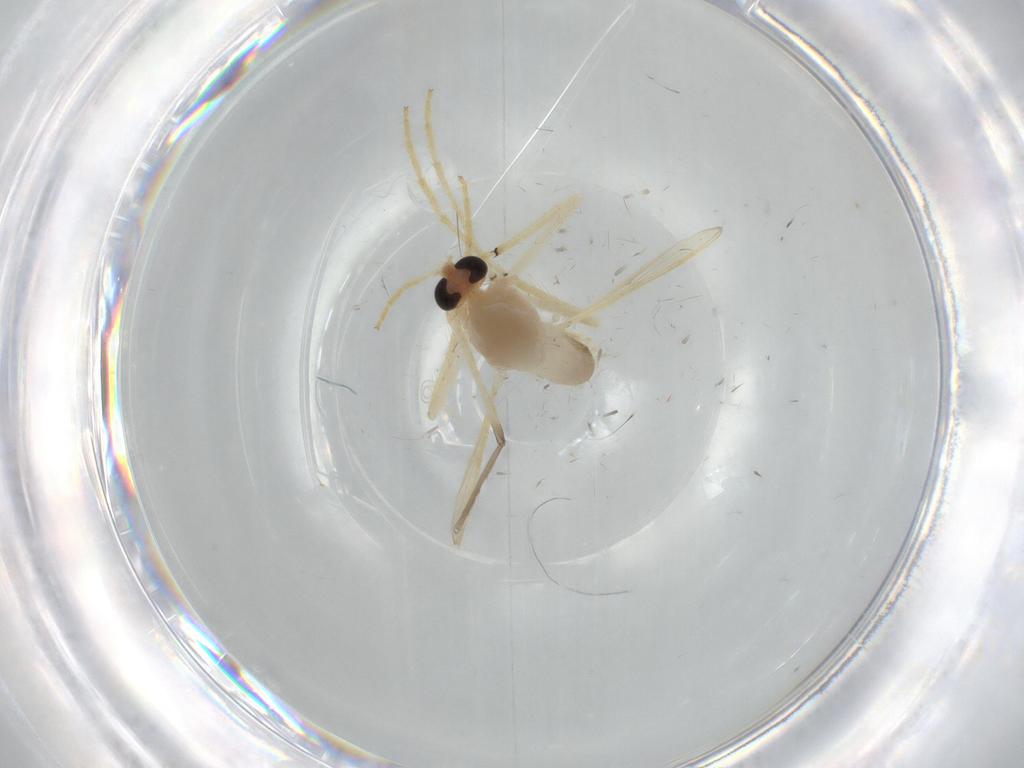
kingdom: Animalia
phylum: Arthropoda
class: Insecta
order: Diptera
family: Chironomidae
